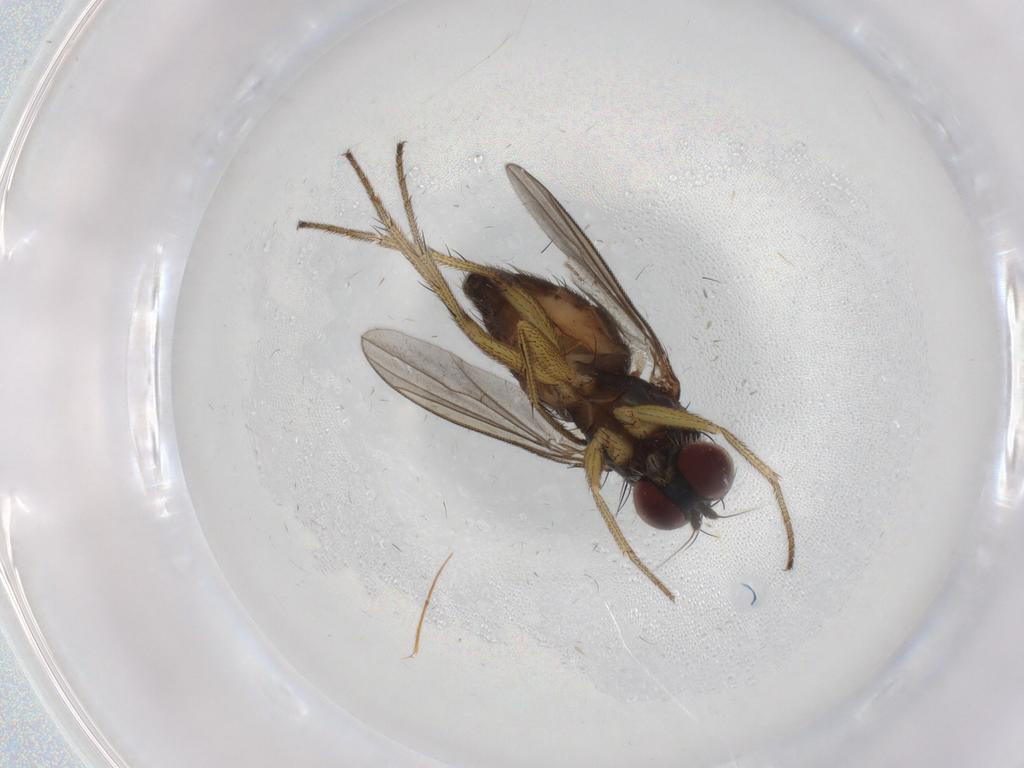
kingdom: Animalia
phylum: Arthropoda
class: Insecta
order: Diptera
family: Dolichopodidae
